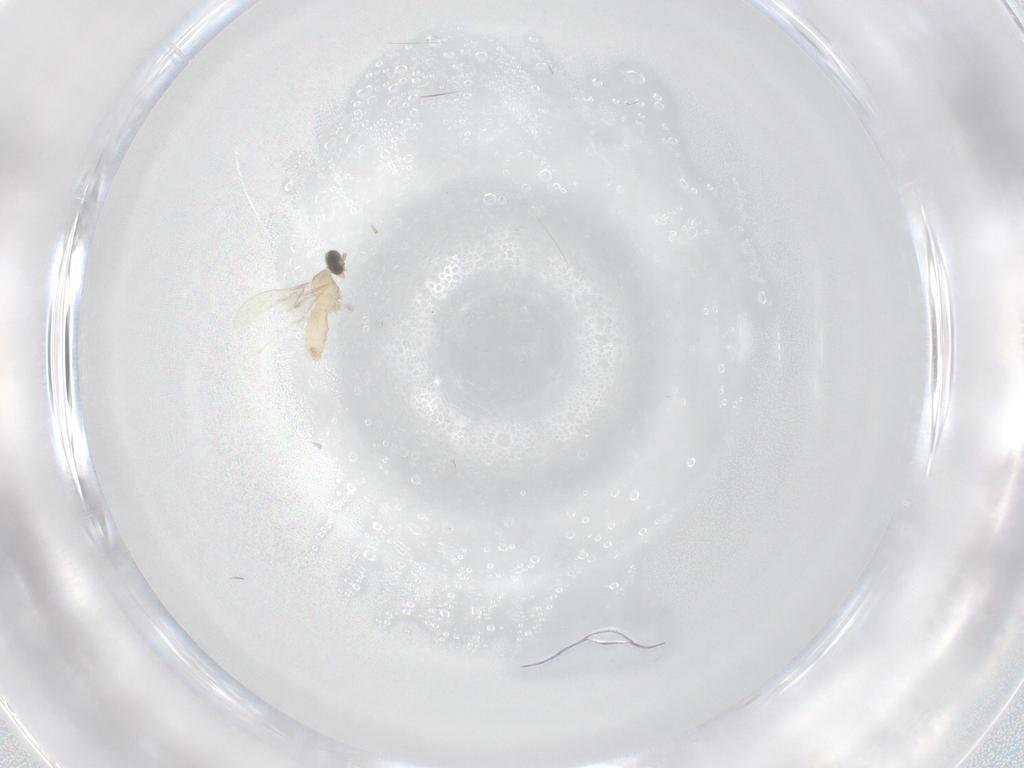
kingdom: Animalia
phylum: Arthropoda
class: Insecta
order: Diptera
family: Cecidomyiidae
